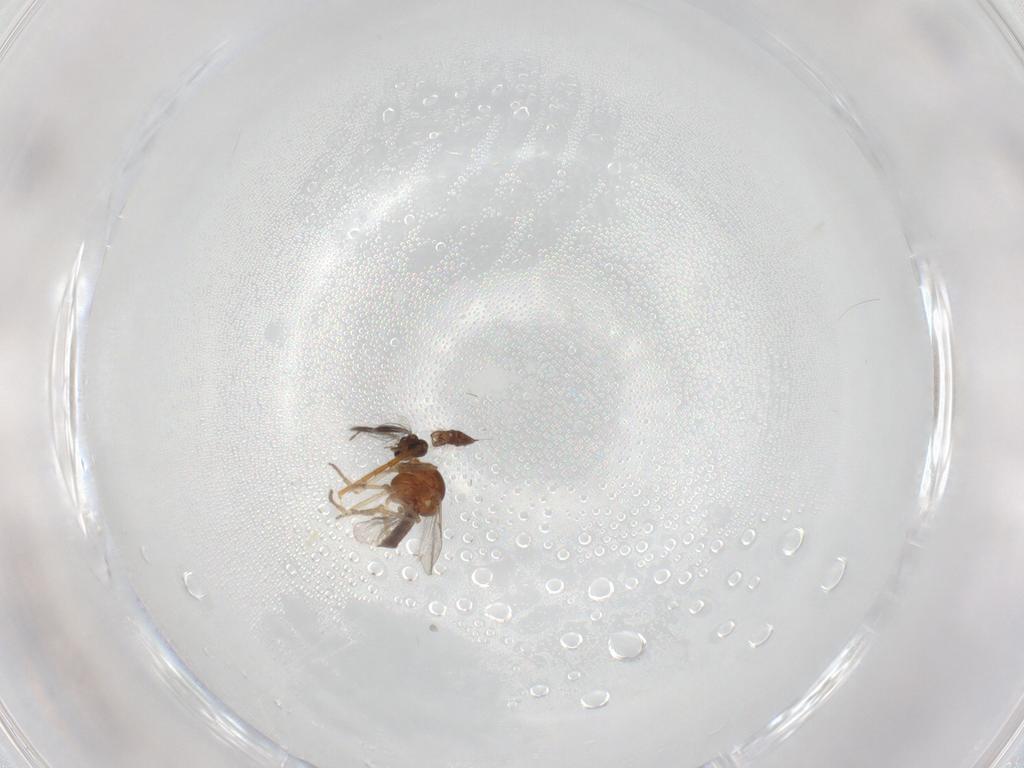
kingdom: Animalia
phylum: Arthropoda
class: Insecta
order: Diptera
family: Ceratopogonidae
